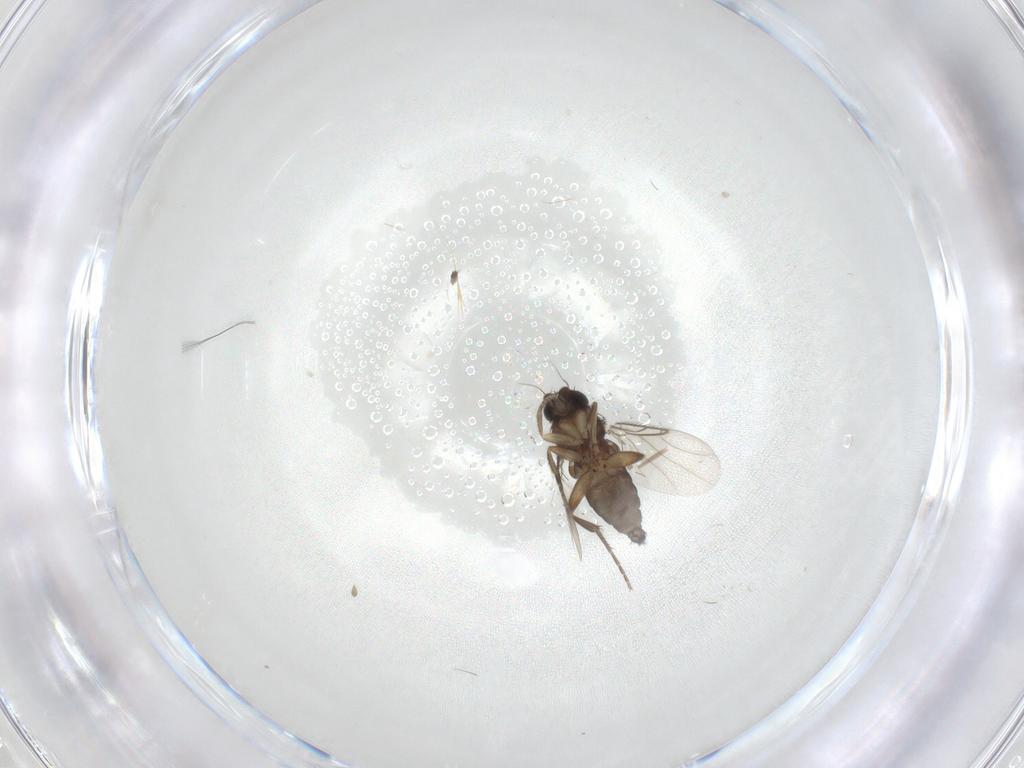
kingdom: Animalia
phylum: Arthropoda
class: Insecta
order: Diptera
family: Phoridae
